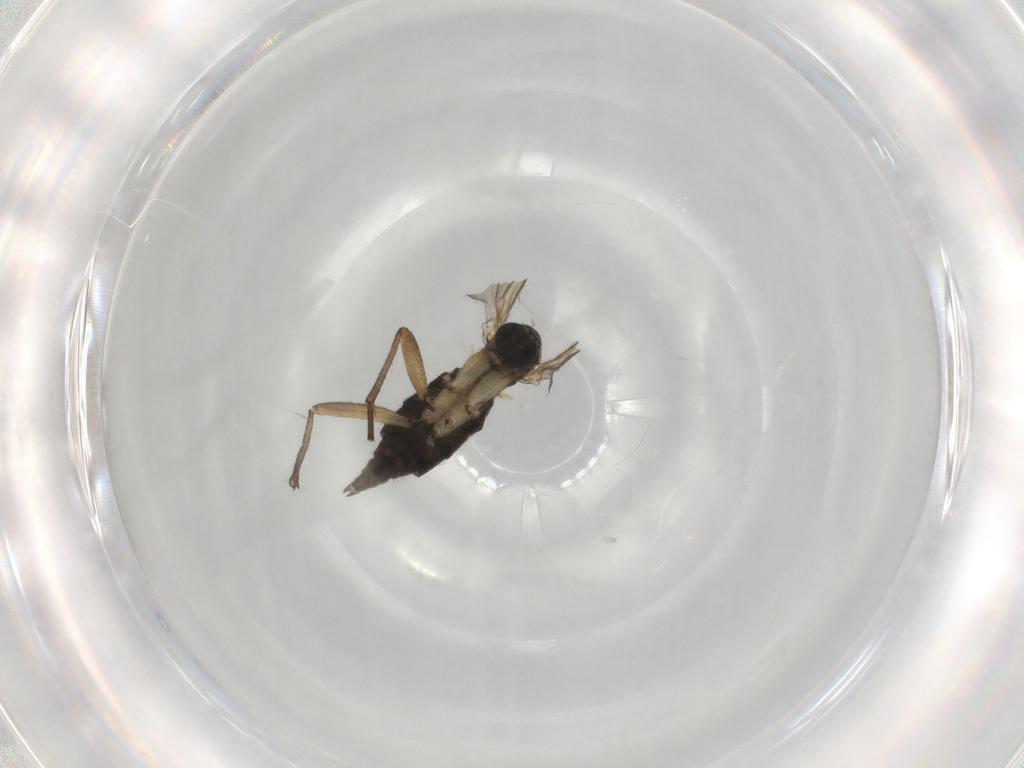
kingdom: Animalia
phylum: Arthropoda
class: Insecta
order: Diptera
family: Sciaridae
